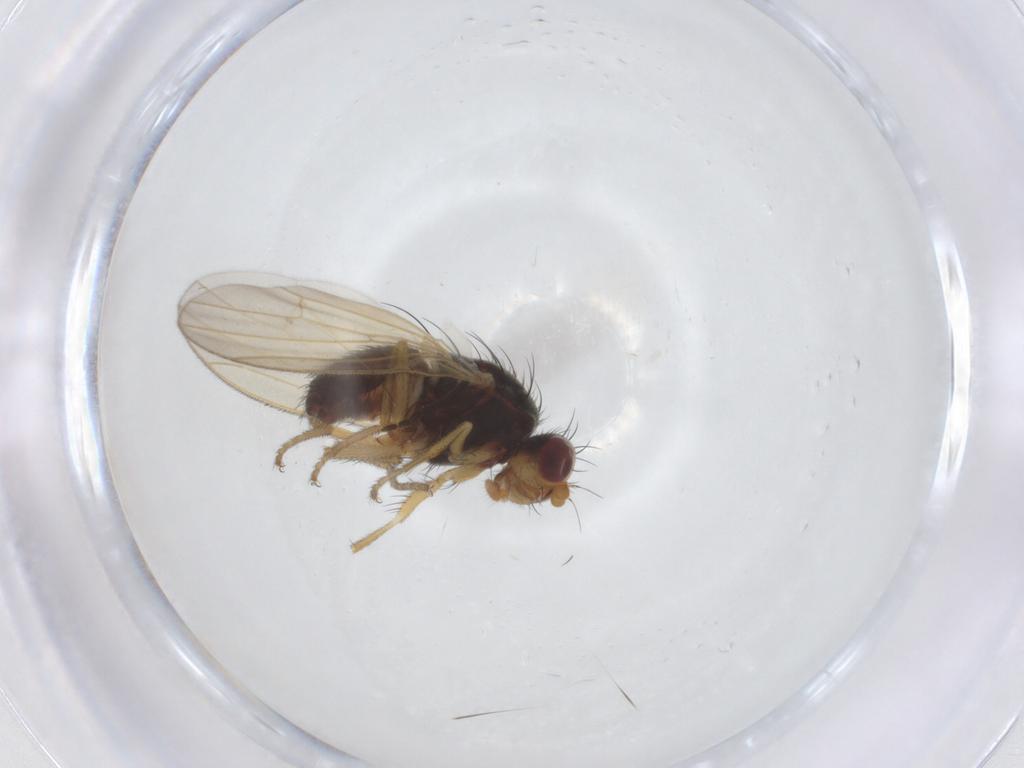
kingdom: Animalia
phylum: Arthropoda
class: Insecta
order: Diptera
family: Heleomyzidae
